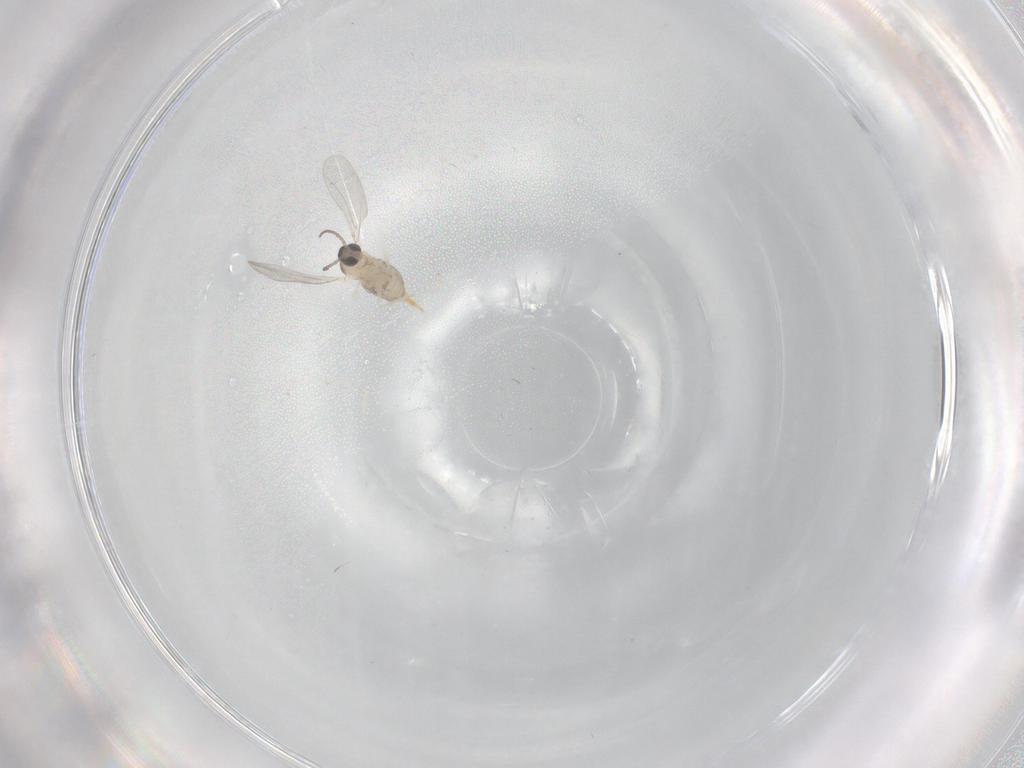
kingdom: Animalia
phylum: Arthropoda
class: Insecta
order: Diptera
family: Cecidomyiidae
